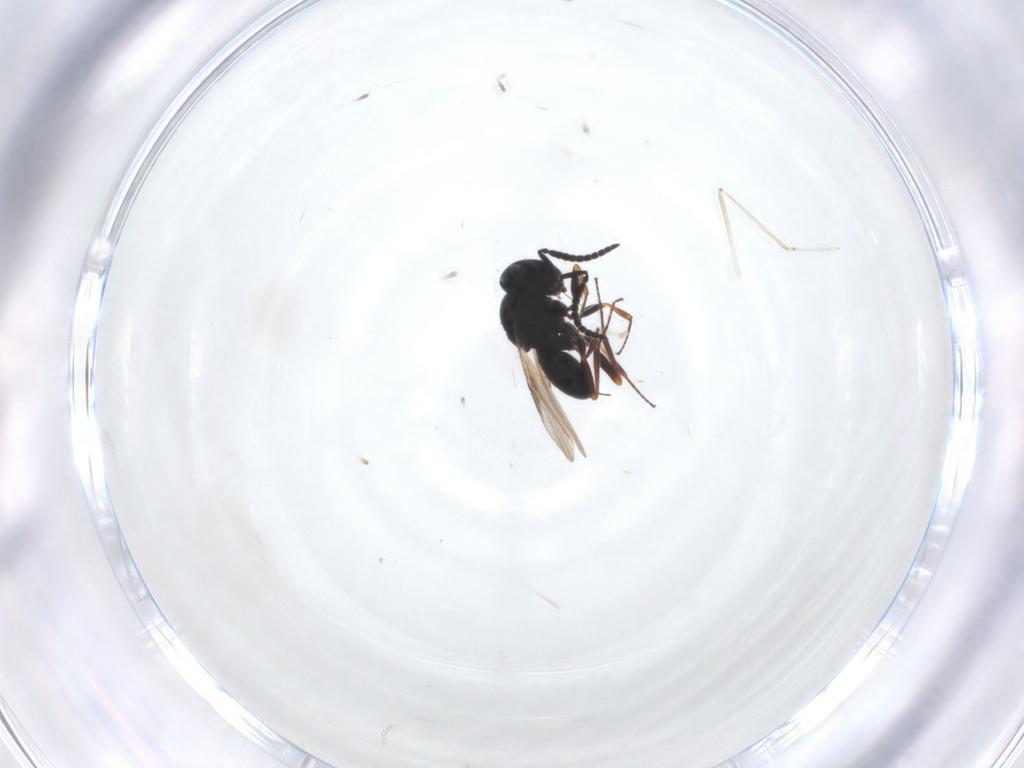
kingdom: Animalia
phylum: Arthropoda
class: Insecta
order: Hymenoptera
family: Scelionidae
